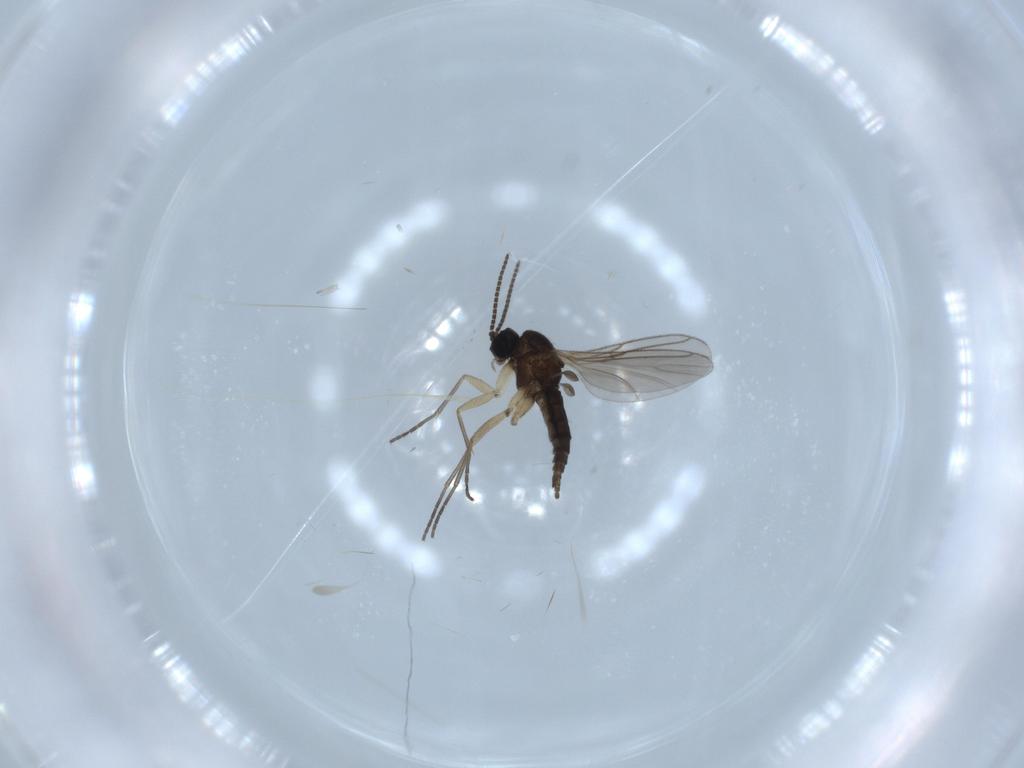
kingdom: Animalia
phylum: Arthropoda
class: Insecta
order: Diptera
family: Sciaridae
